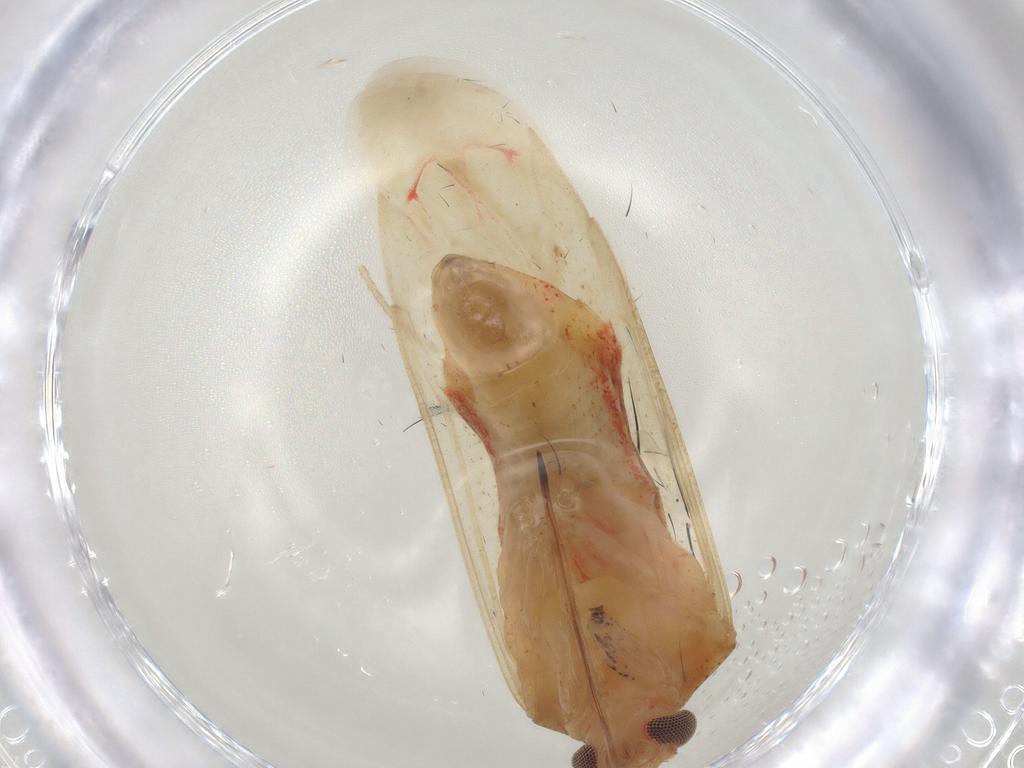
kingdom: Animalia
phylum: Arthropoda
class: Insecta
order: Hemiptera
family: Miridae
